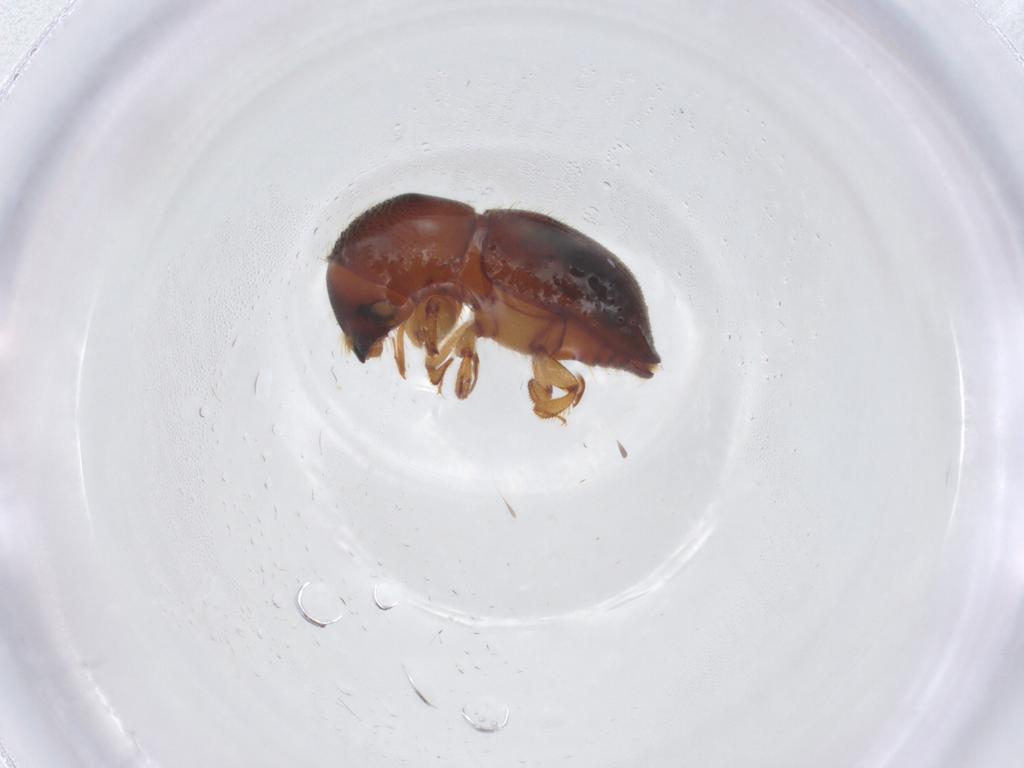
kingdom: Animalia
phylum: Arthropoda
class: Insecta
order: Coleoptera
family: Curculionidae
